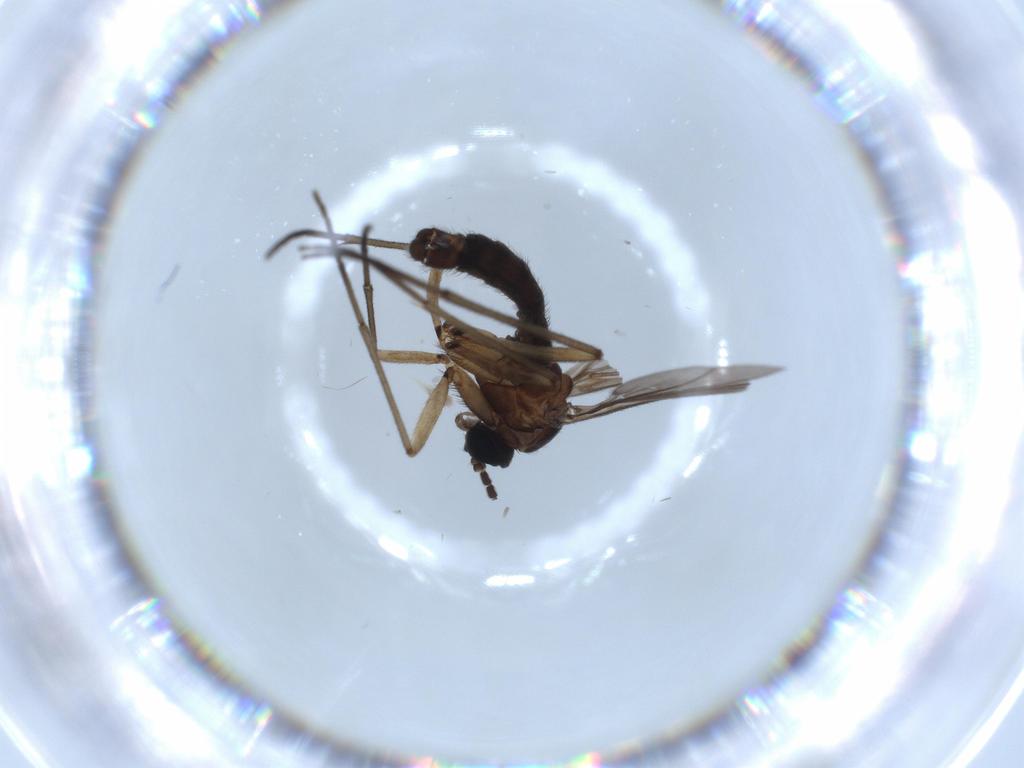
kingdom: Animalia
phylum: Arthropoda
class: Insecta
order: Diptera
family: Sciaridae
